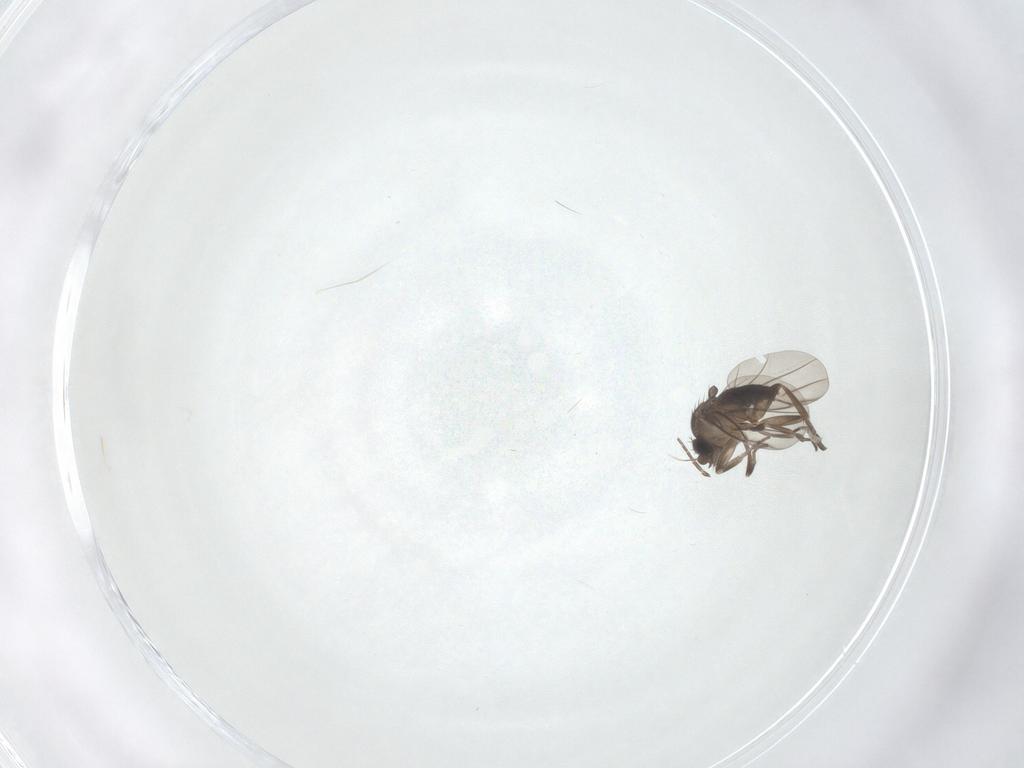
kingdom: Animalia
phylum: Arthropoda
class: Insecta
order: Diptera
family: Phoridae
